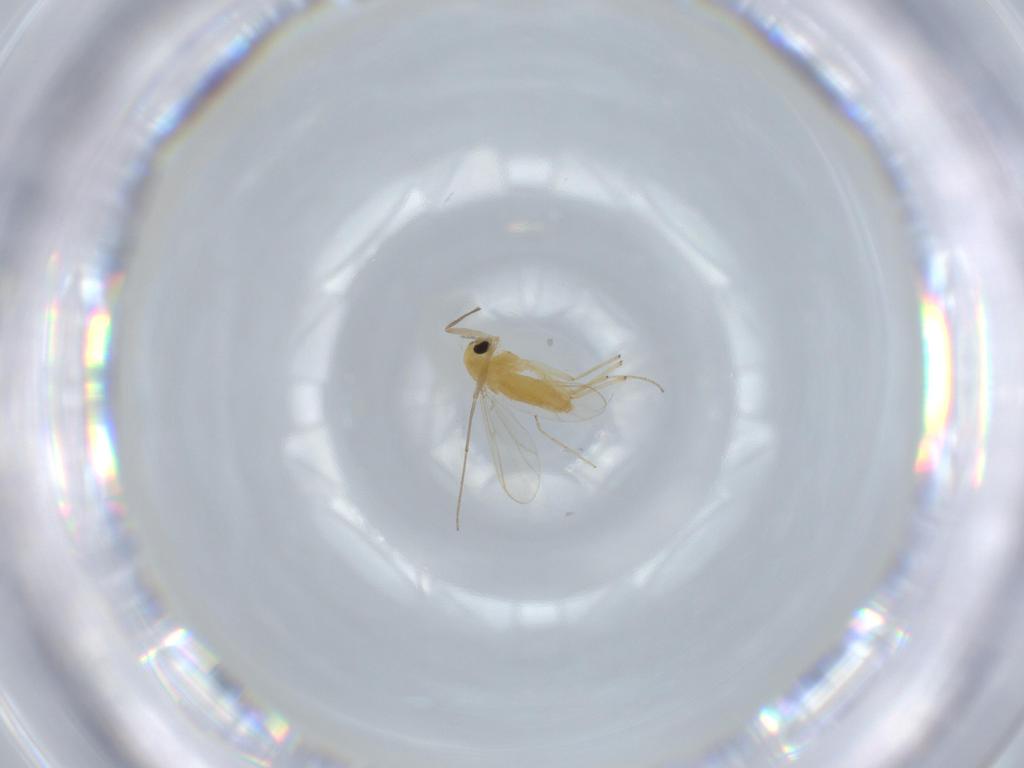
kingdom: Animalia
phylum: Arthropoda
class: Insecta
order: Diptera
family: Chironomidae
